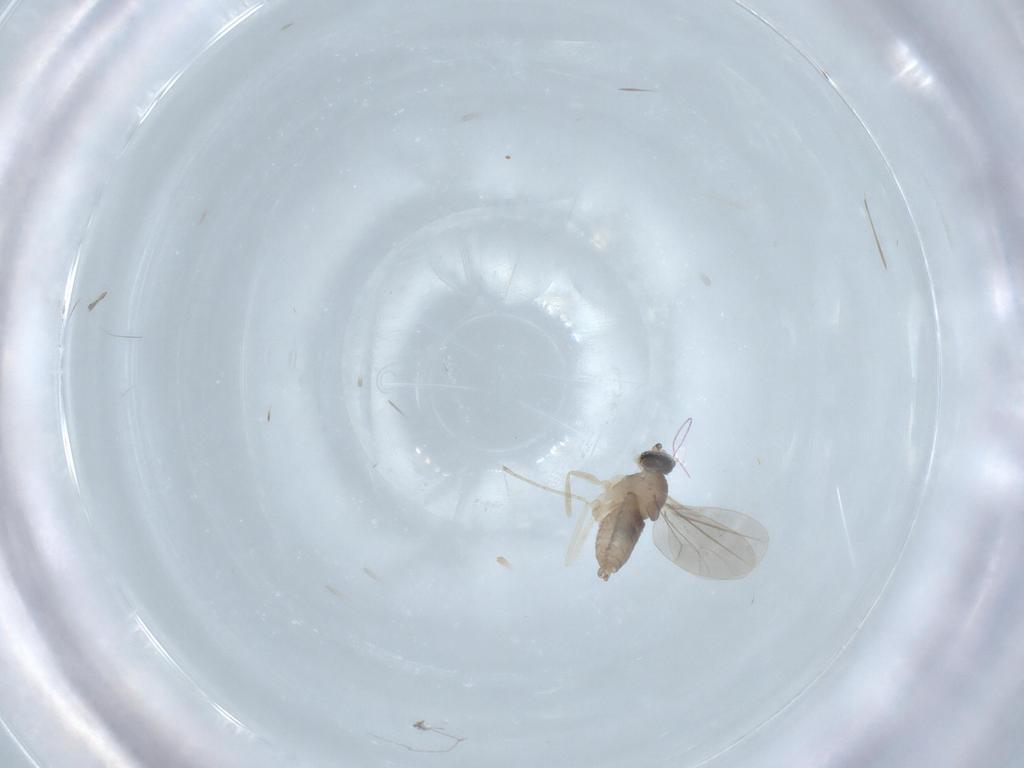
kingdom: Animalia
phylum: Arthropoda
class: Insecta
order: Diptera
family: Cecidomyiidae
